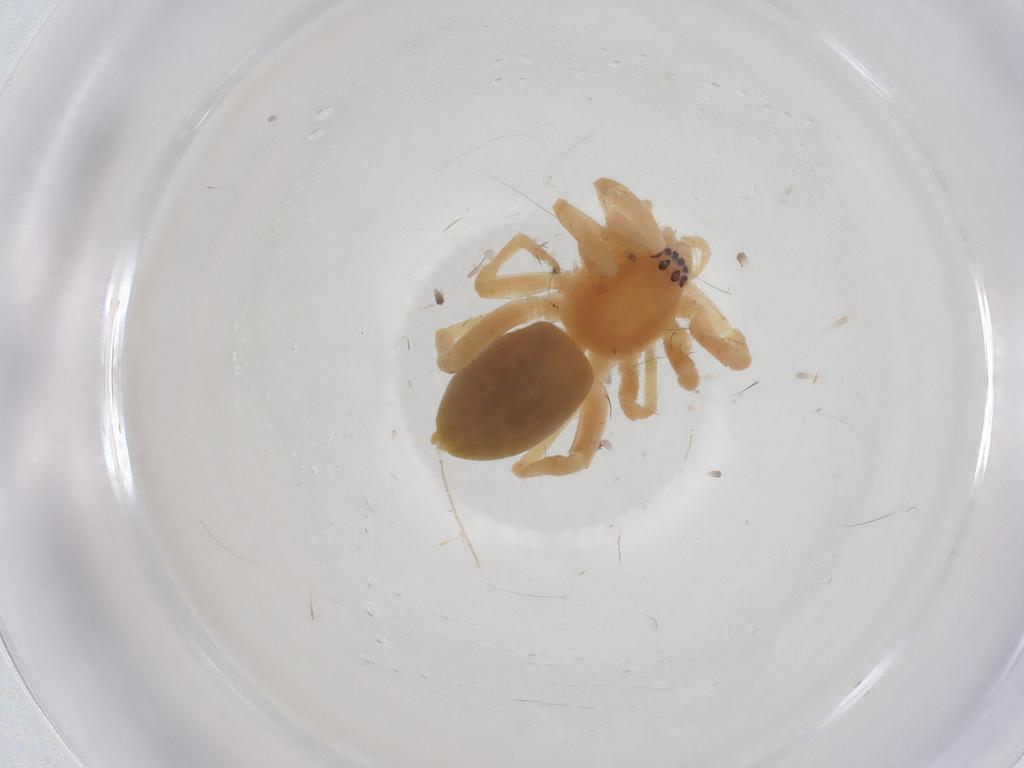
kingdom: Animalia
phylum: Arthropoda
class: Arachnida
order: Araneae
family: Anyphaenidae
